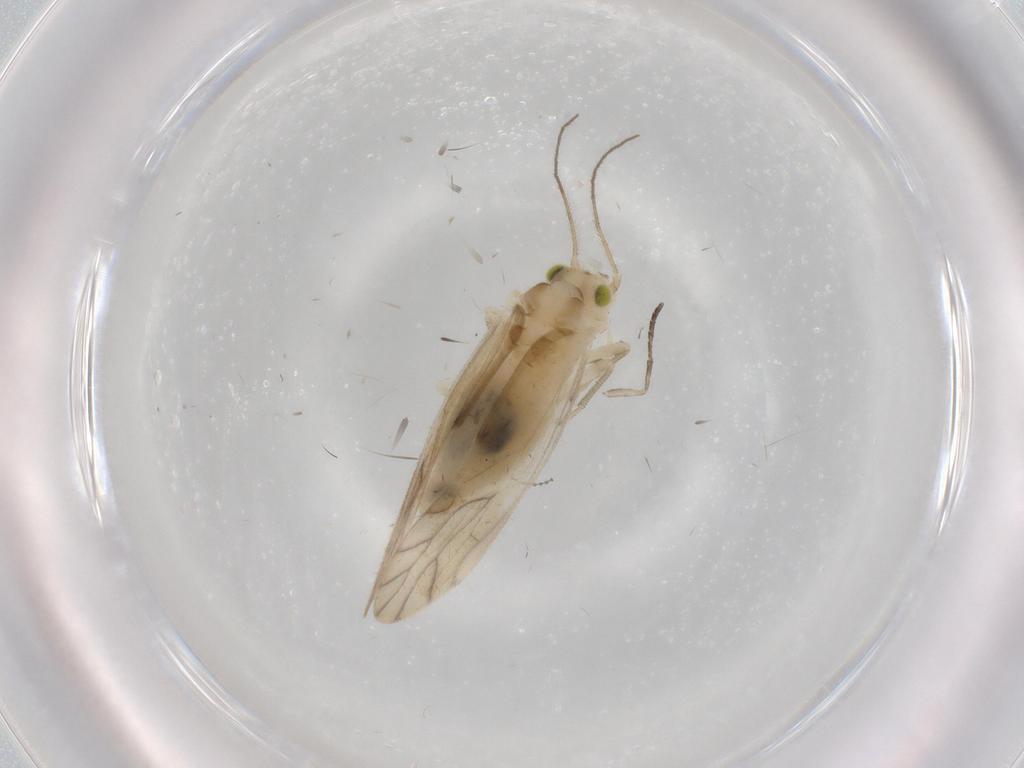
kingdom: Animalia
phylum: Arthropoda
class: Insecta
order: Psocodea
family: Caeciliusidae
